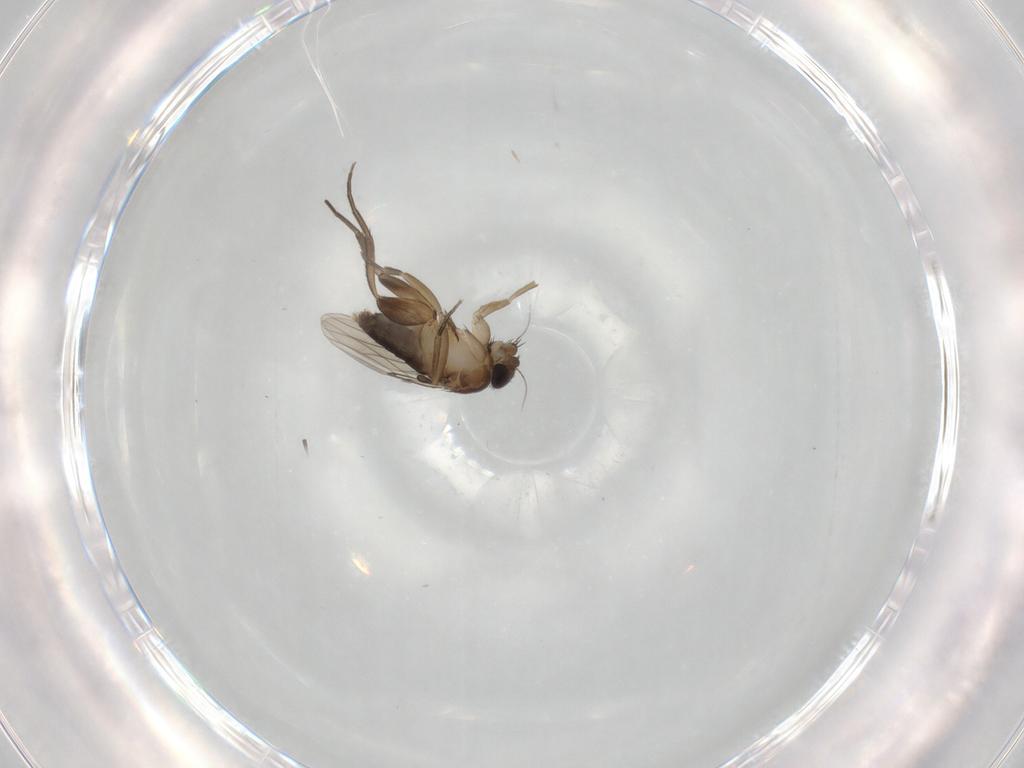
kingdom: Animalia
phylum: Arthropoda
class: Insecta
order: Diptera
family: Phoridae
